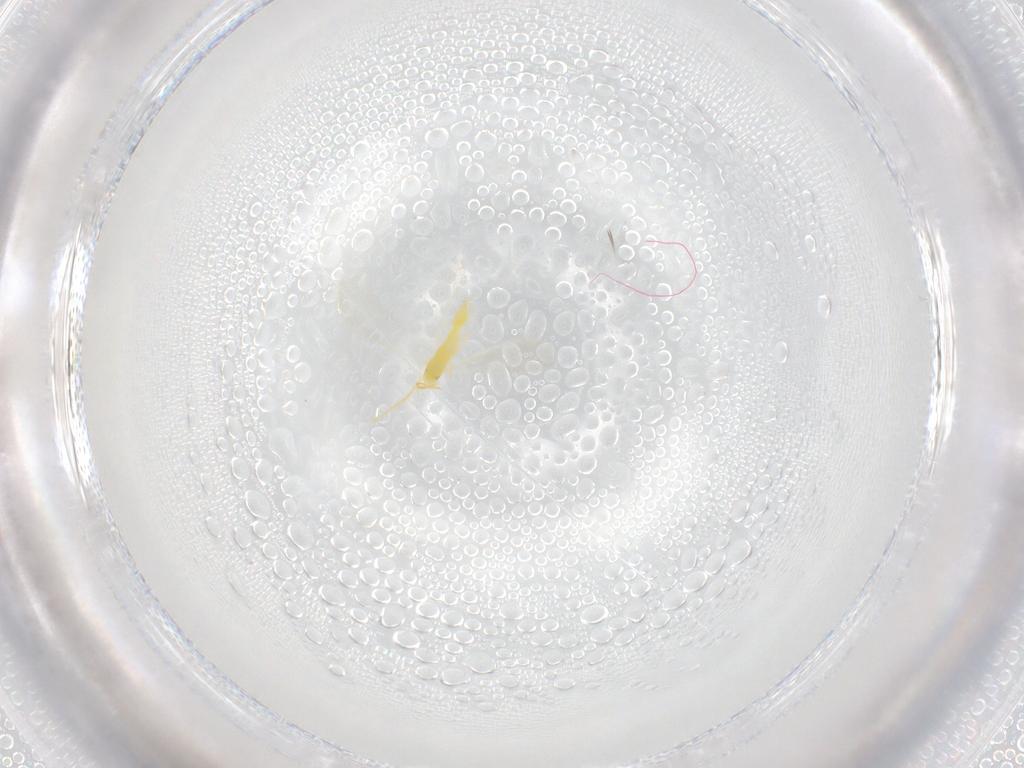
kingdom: Animalia
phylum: Arthropoda
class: Insecta
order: Hemiptera
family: Aleyrodidae
